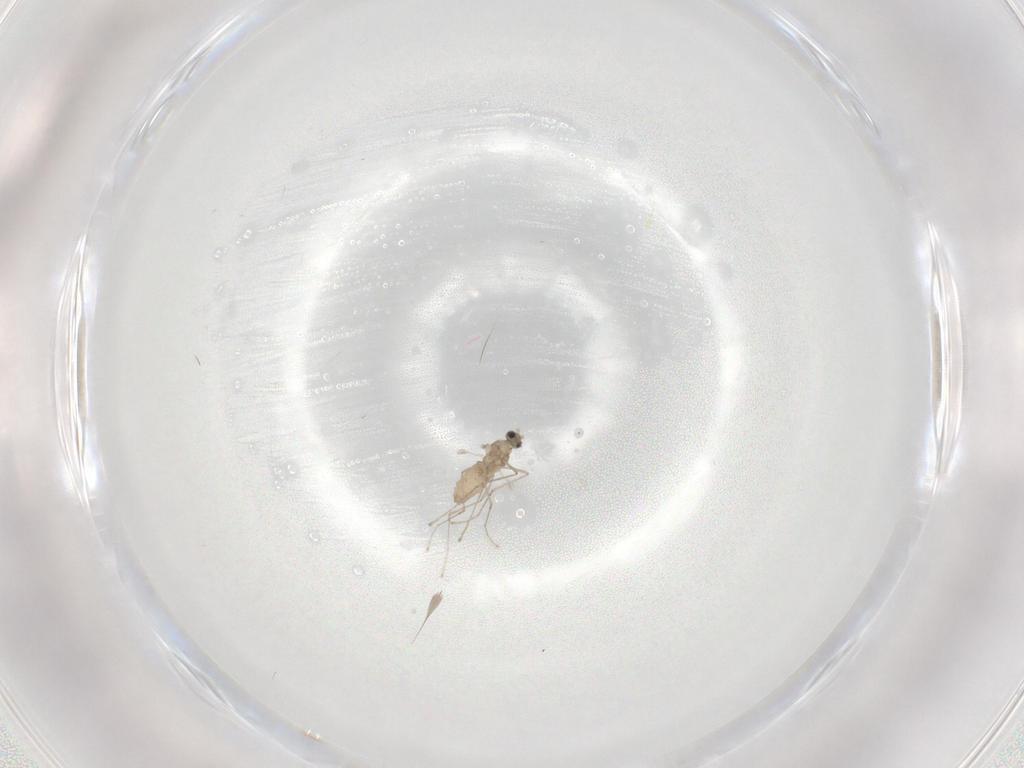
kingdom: Animalia
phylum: Arthropoda
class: Insecta
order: Diptera
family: Cecidomyiidae
